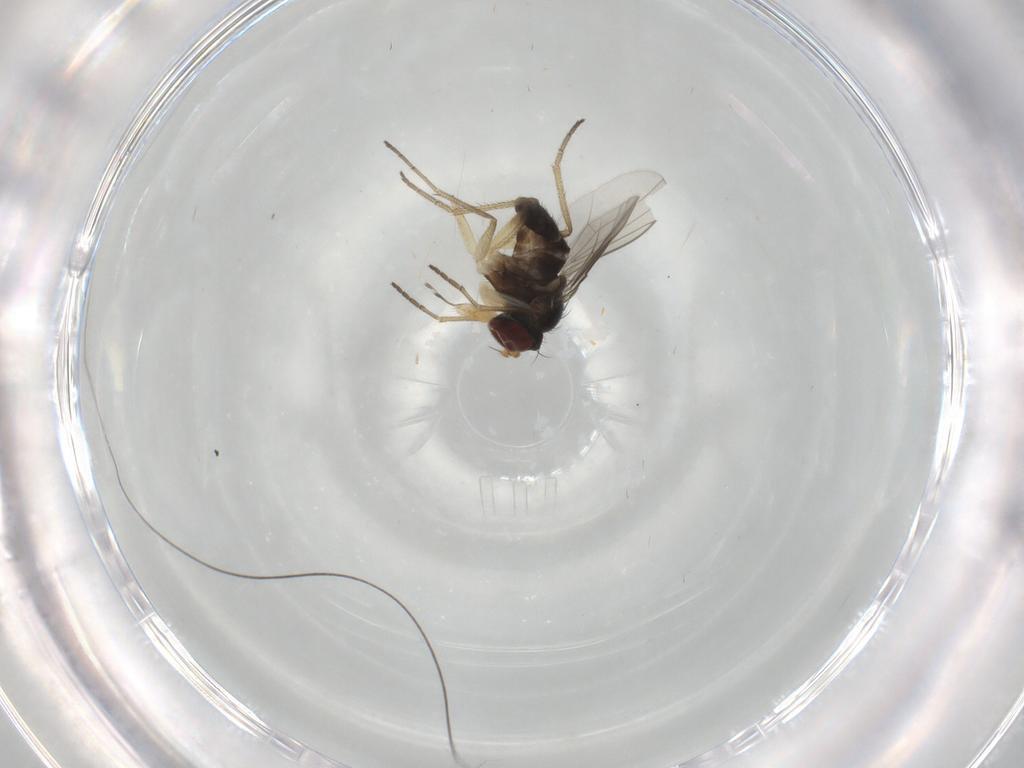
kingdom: Animalia
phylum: Arthropoda
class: Insecta
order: Diptera
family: Dolichopodidae
